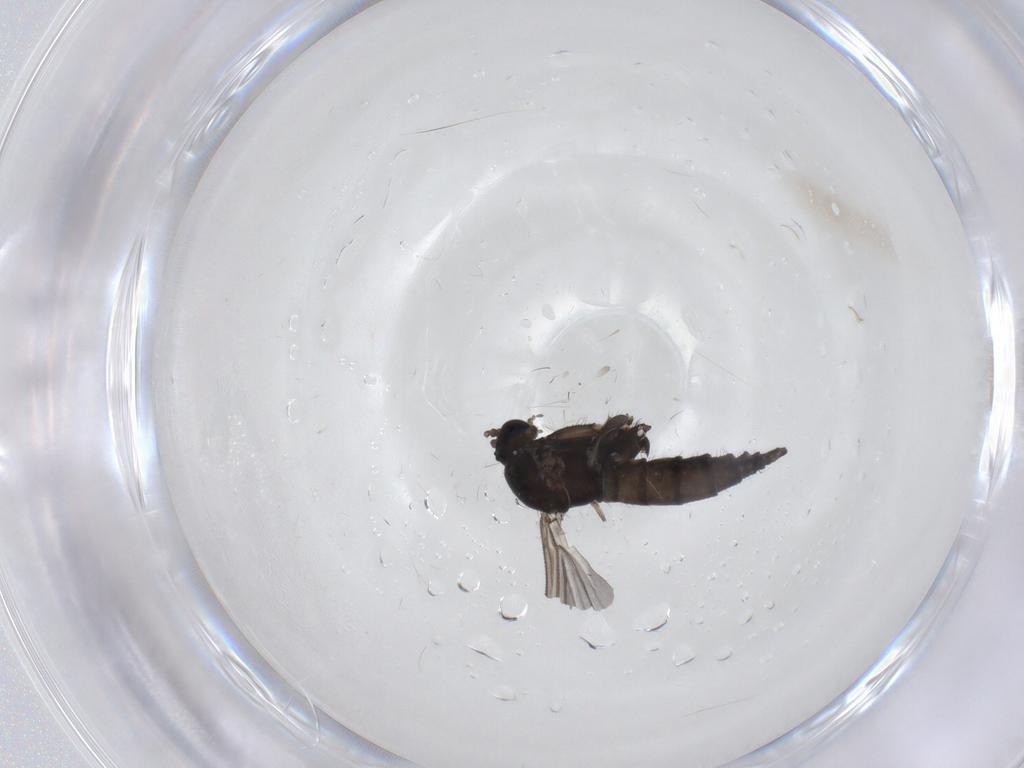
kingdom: Animalia
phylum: Arthropoda
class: Insecta
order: Diptera
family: Sciaridae
